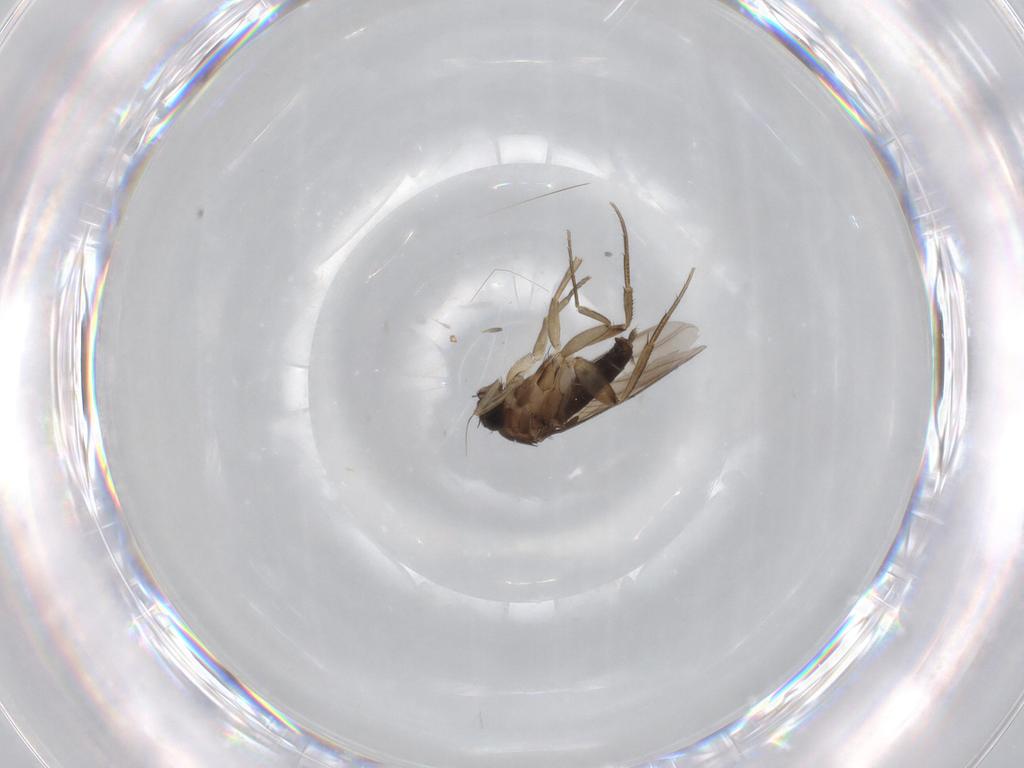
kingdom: Animalia
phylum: Arthropoda
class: Insecta
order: Diptera
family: Phoridae
